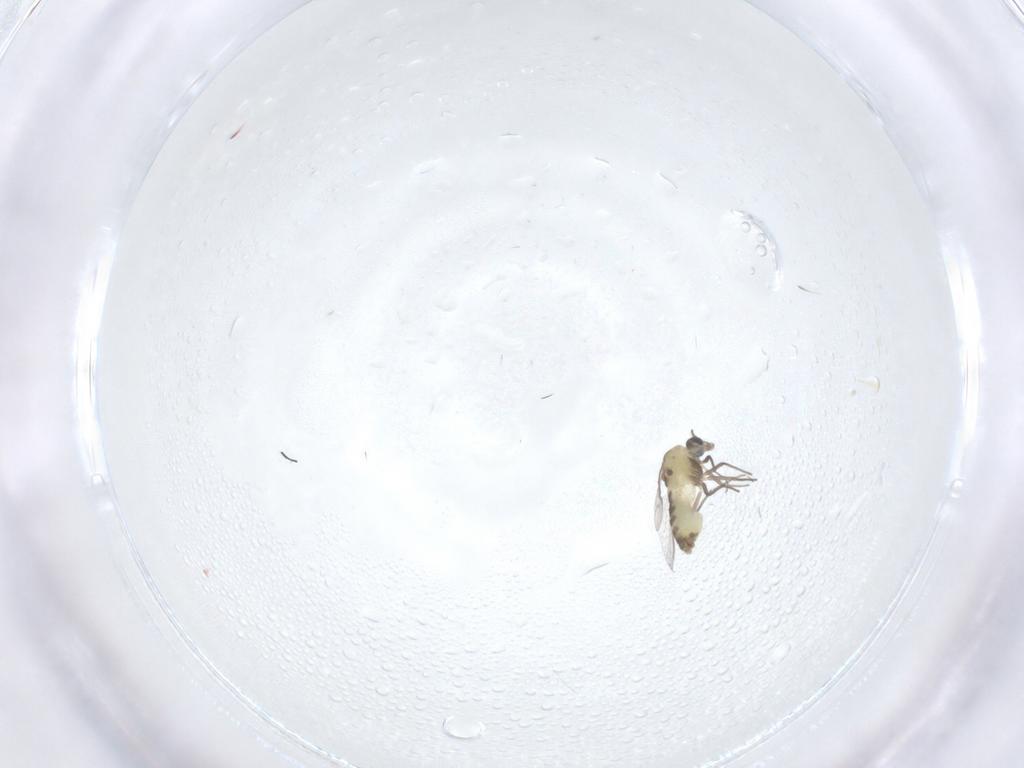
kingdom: Animalia
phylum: Arthropoda
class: Insecta
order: Diptera
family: Chironomidae
